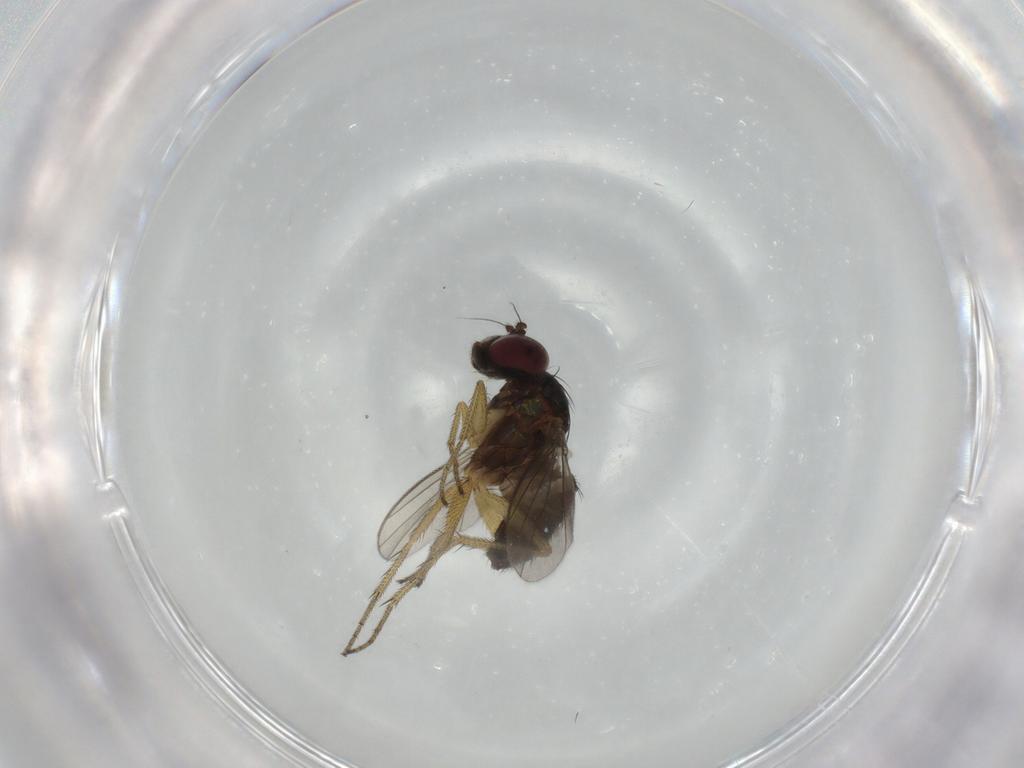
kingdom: Animalia
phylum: Arthropoda
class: Insecta
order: Diptera
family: Dolichopodidae
